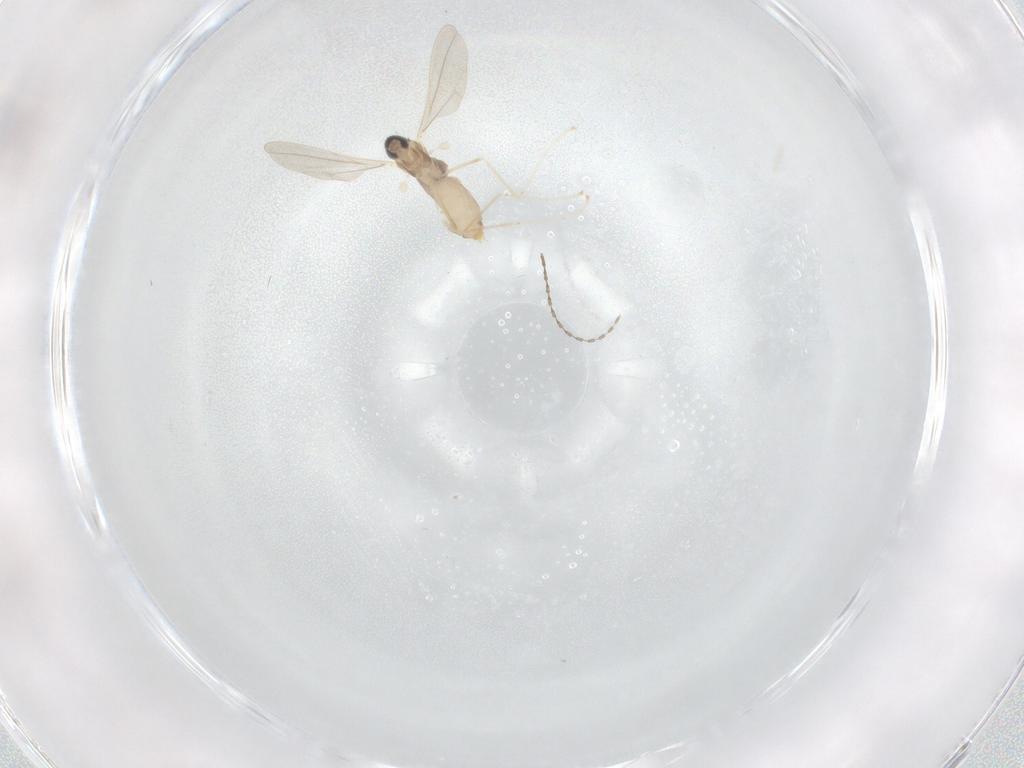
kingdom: Animalia
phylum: Arthropoda
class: Insecta
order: Diptera
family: Cecidomyiidae
